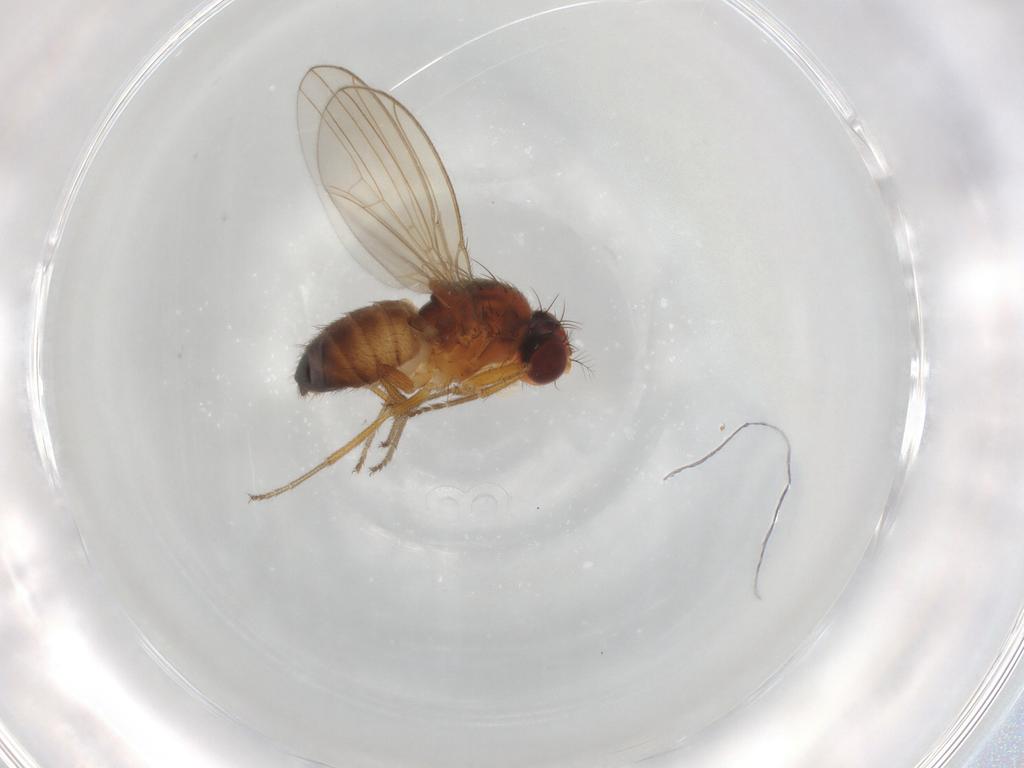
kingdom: Animalia
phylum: Arthropoda
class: Insecta
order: Diptera
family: Drosophilidae
